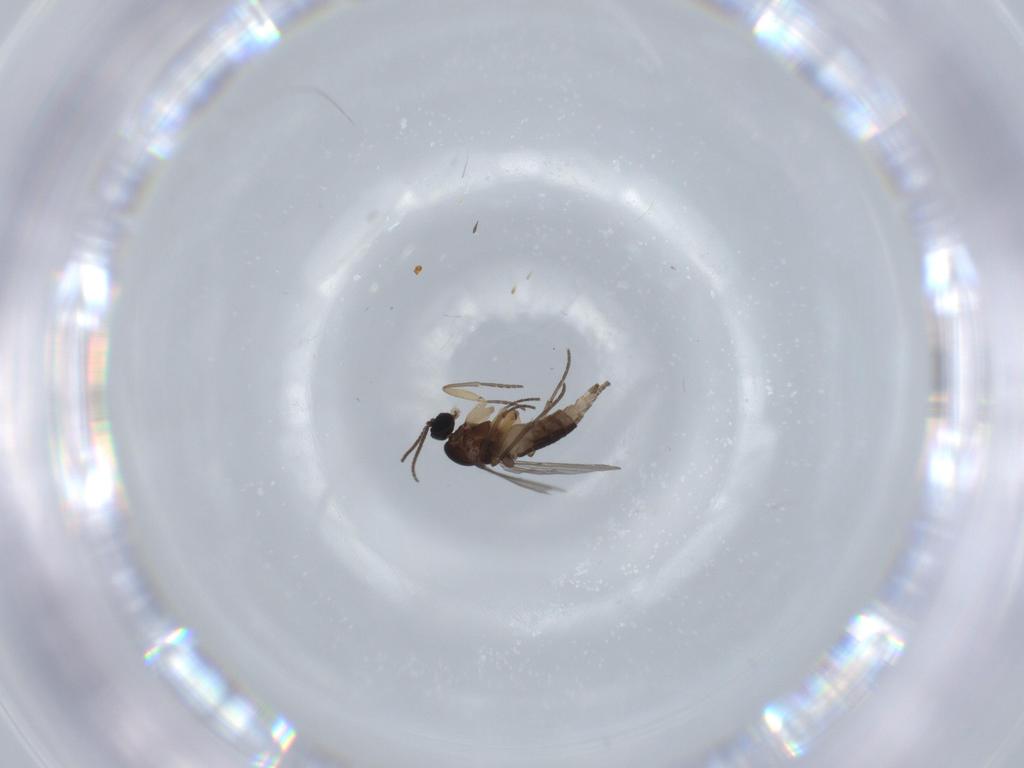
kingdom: Animalia
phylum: Arthropoda
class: Insecta
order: Diptera
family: Sciaridae
